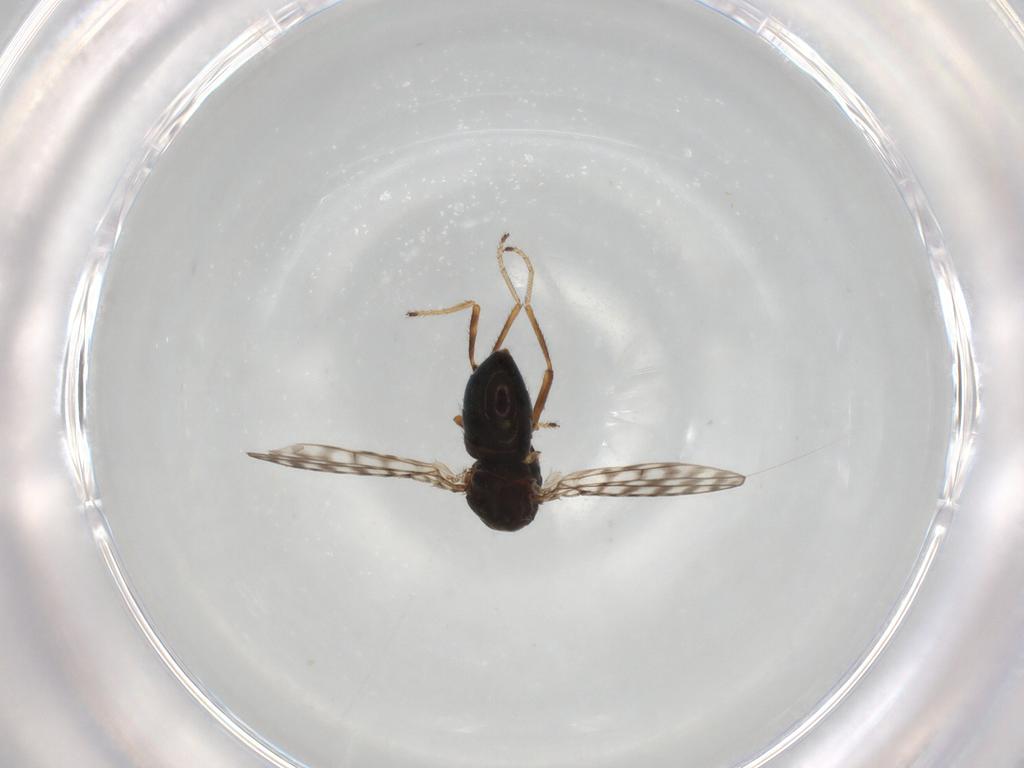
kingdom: Animalia
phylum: Arthropoda
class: Insecta
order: Diptera
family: Ephydridae
